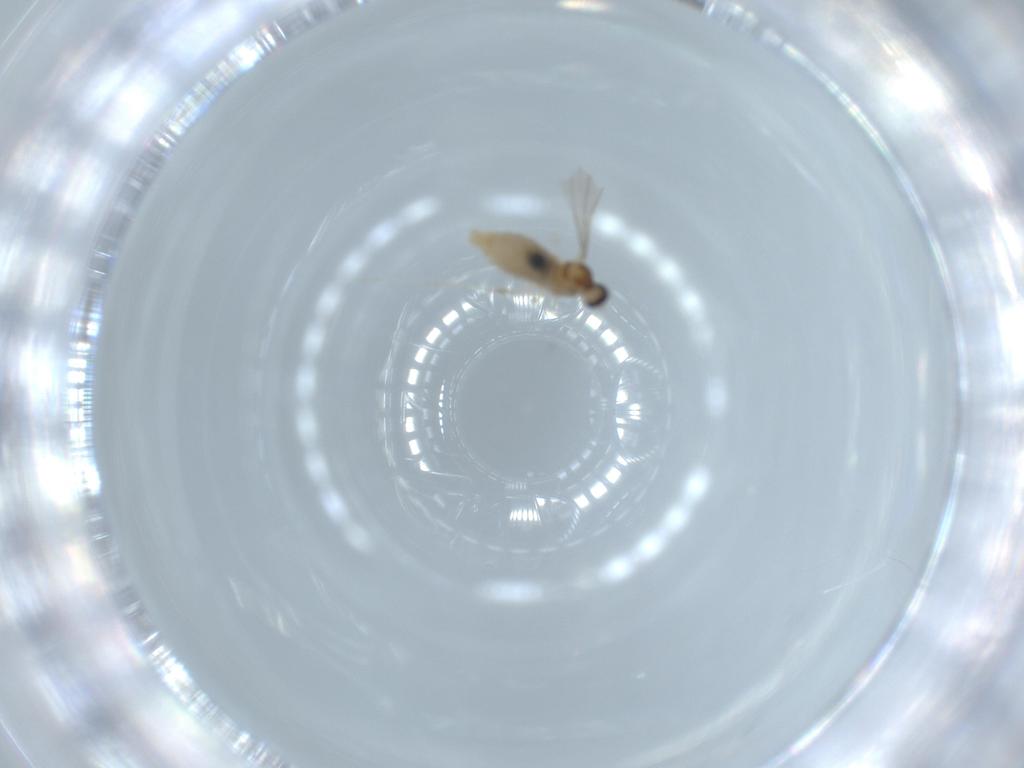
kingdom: Animalia
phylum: Arthropoda
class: Insecta
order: Diptera
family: Cecidomyiidae
